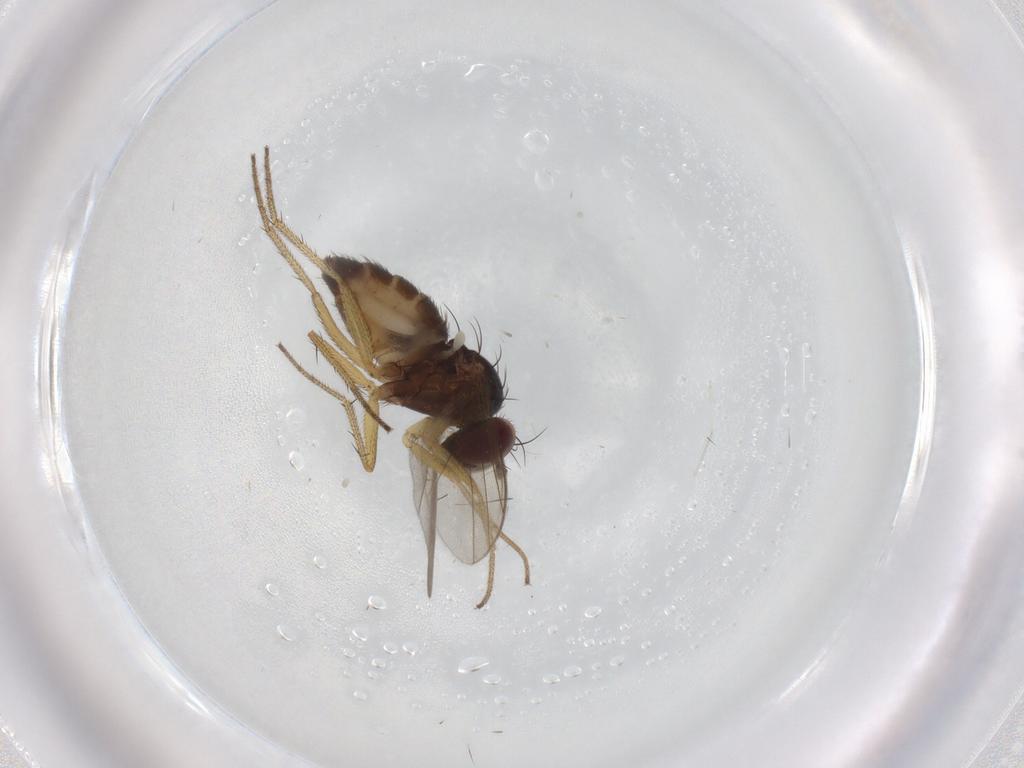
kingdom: Animalia
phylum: Arthropoda
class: Insecta
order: Diptera
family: Dolichopodidae
